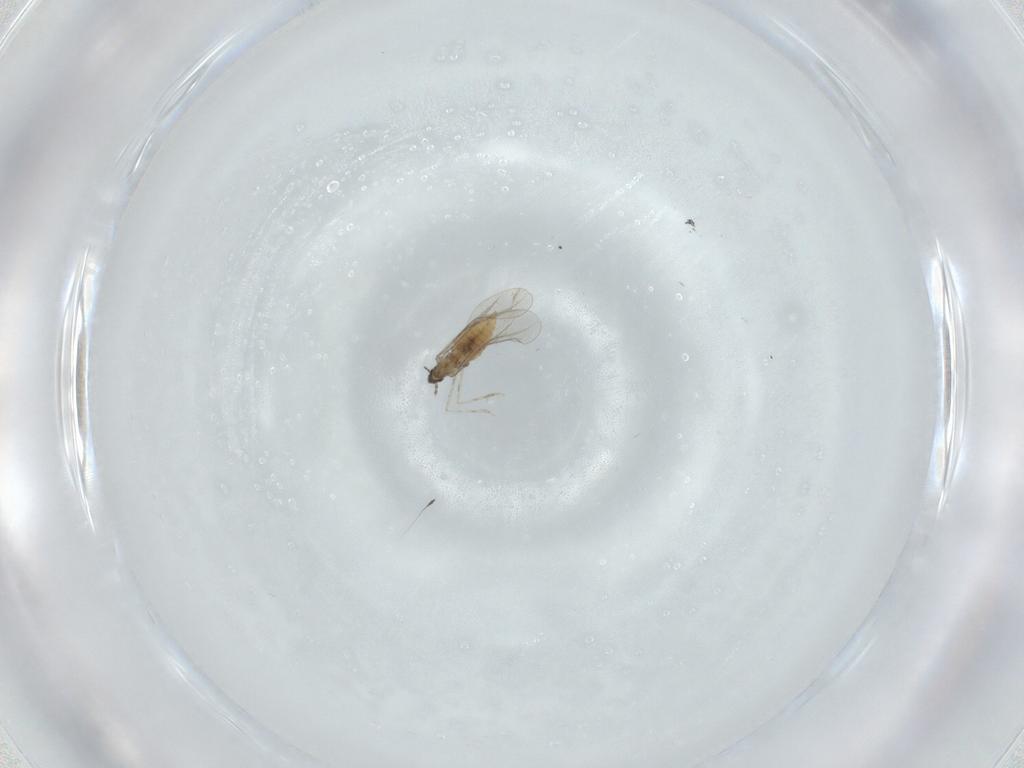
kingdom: Animalia
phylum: Arthropoda
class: Insecta
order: Diptera
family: Cecidomyiidae
